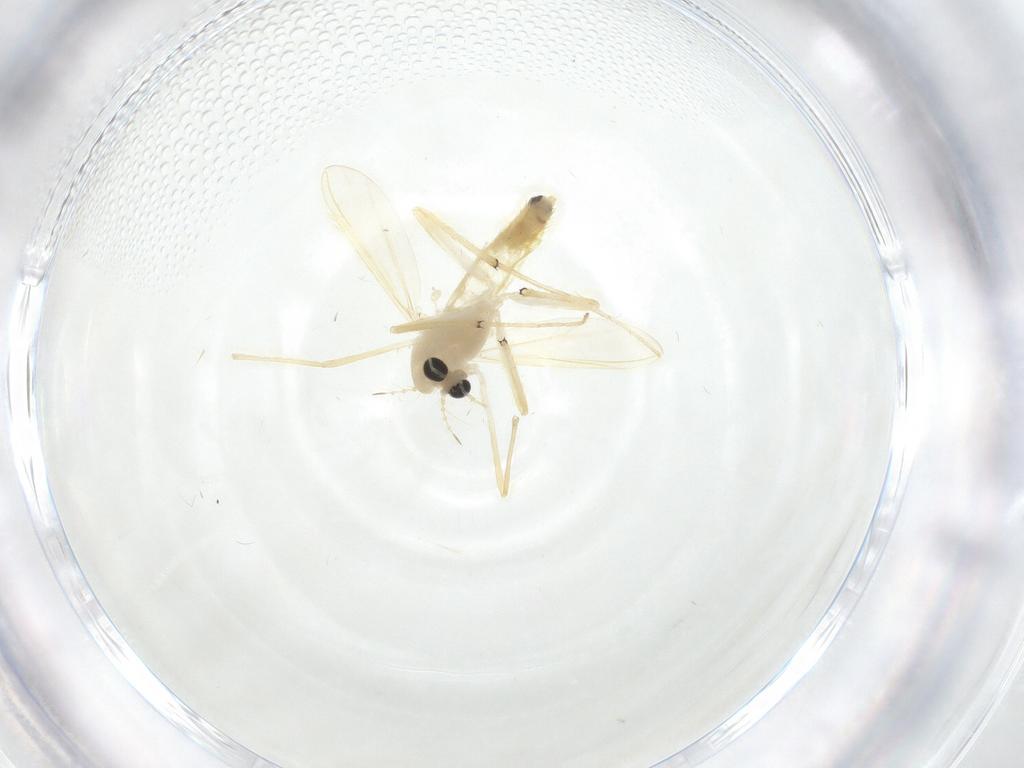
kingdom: Animalia
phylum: Arthropoda
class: Insecta
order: Diptera
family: Chironomidae
